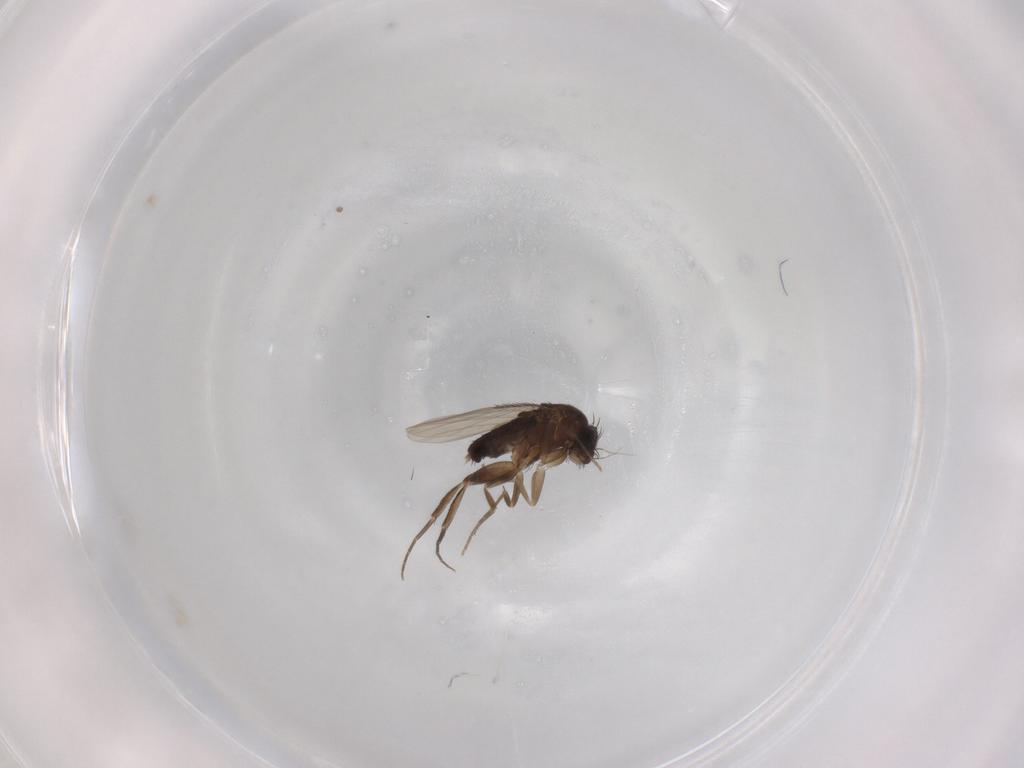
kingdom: Animalia
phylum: Arthropoda
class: Insecta
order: Diptera
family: Phoridae
